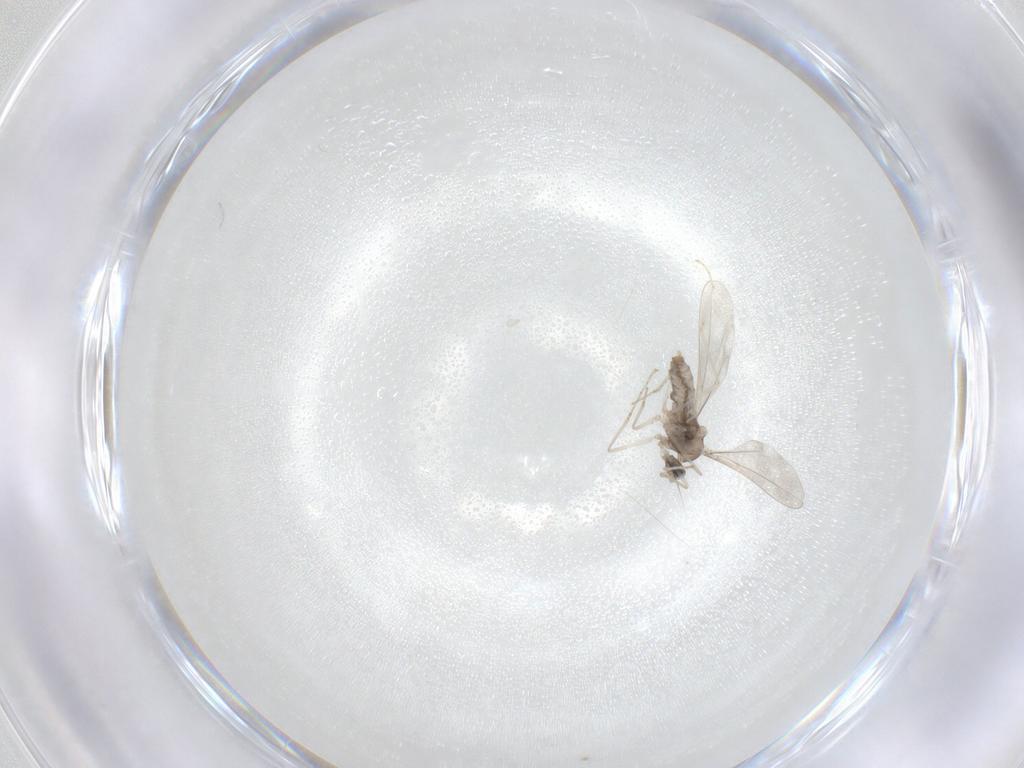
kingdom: Animalia
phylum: Arthropoda
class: Insecta
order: Diptera
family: Cecidomyiidae
